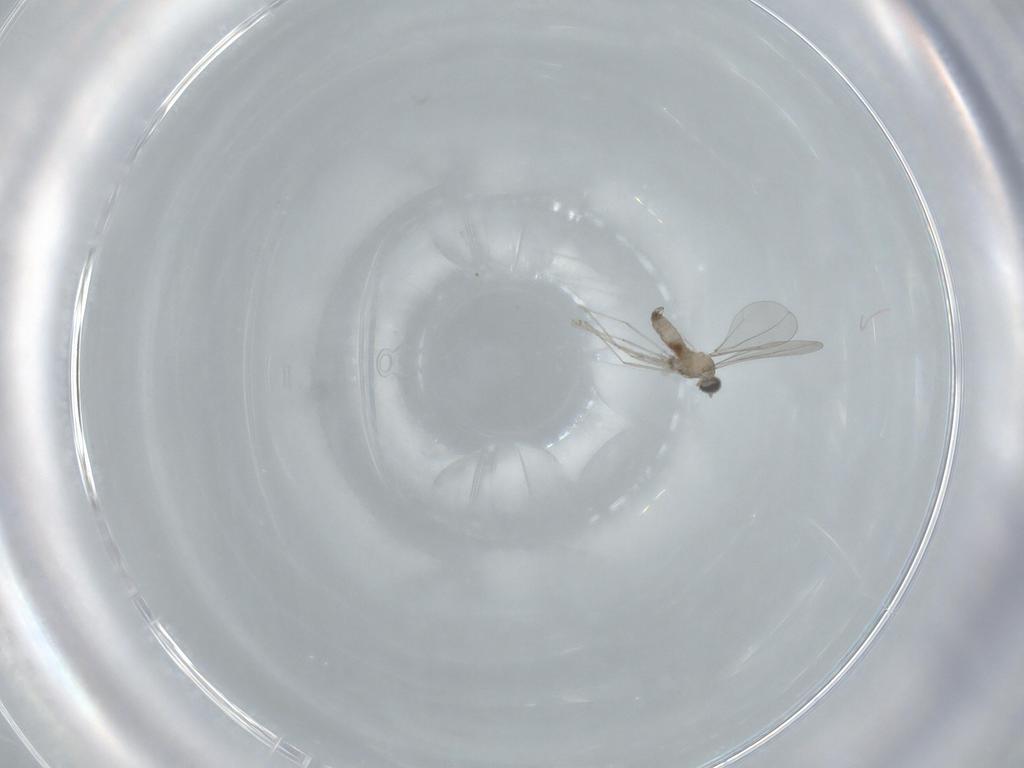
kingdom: Animalia
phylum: Arthropoda
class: Insecta
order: Diptera
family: Cecidomyiidae
